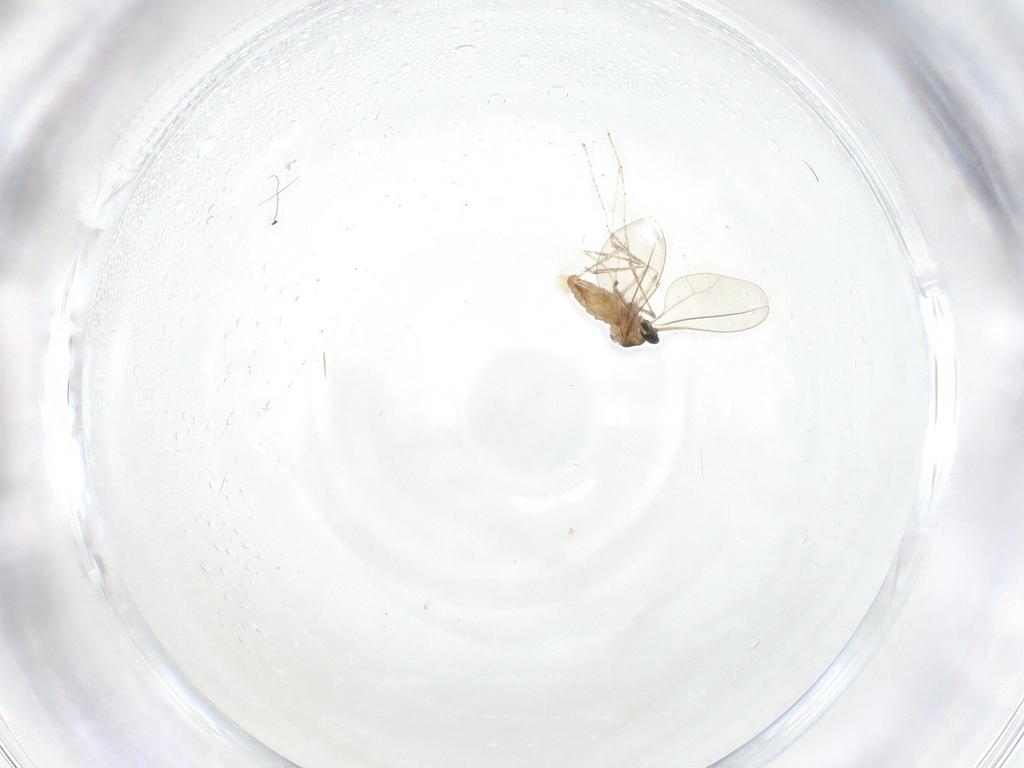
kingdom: Animalia
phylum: Arthropoda
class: Insecta
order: Diptera
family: Cecidomyiidae
